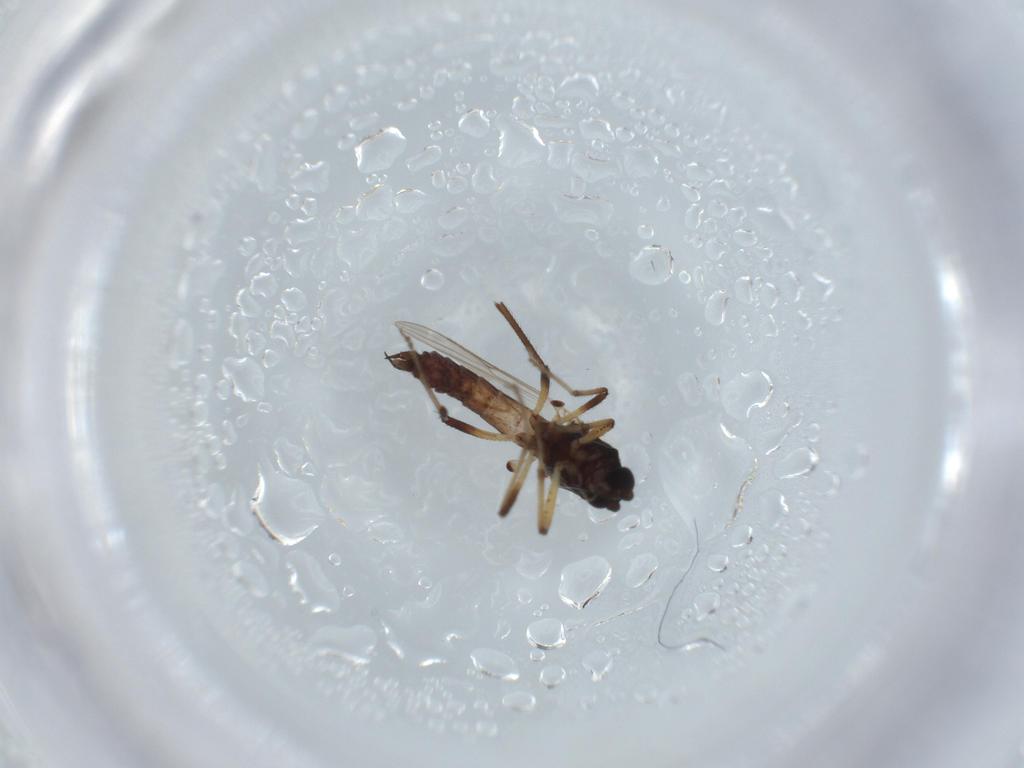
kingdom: Animalia
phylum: Arthropoda
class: Insecta
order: Diptera
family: Ceratopogonidae
